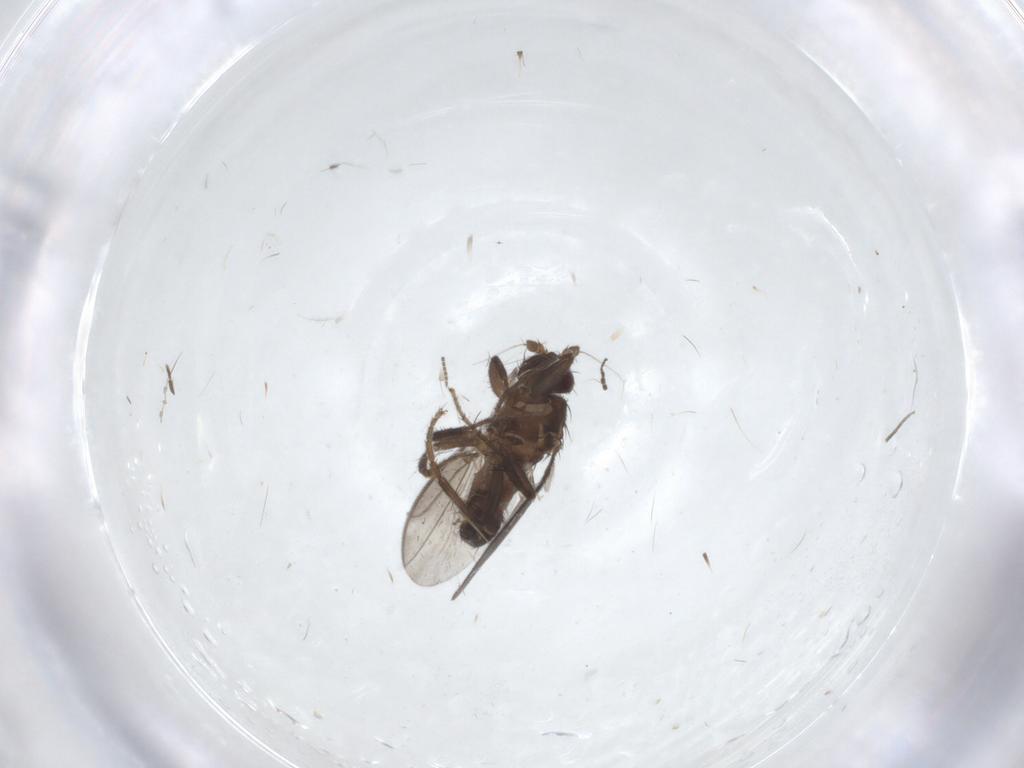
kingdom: Animalia
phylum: Arthropoda
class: Insecta
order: Diptera
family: Sphaeroceridae
